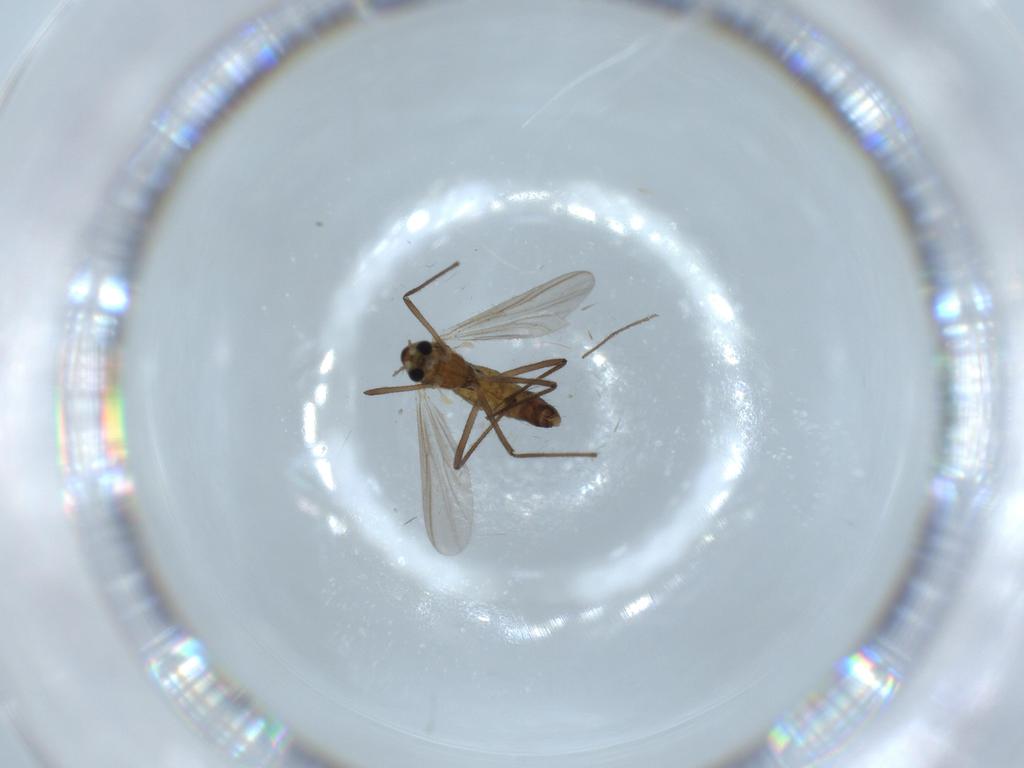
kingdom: Animalia
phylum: Arthropoda
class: Insecta
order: Diptera
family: Chironomidae
